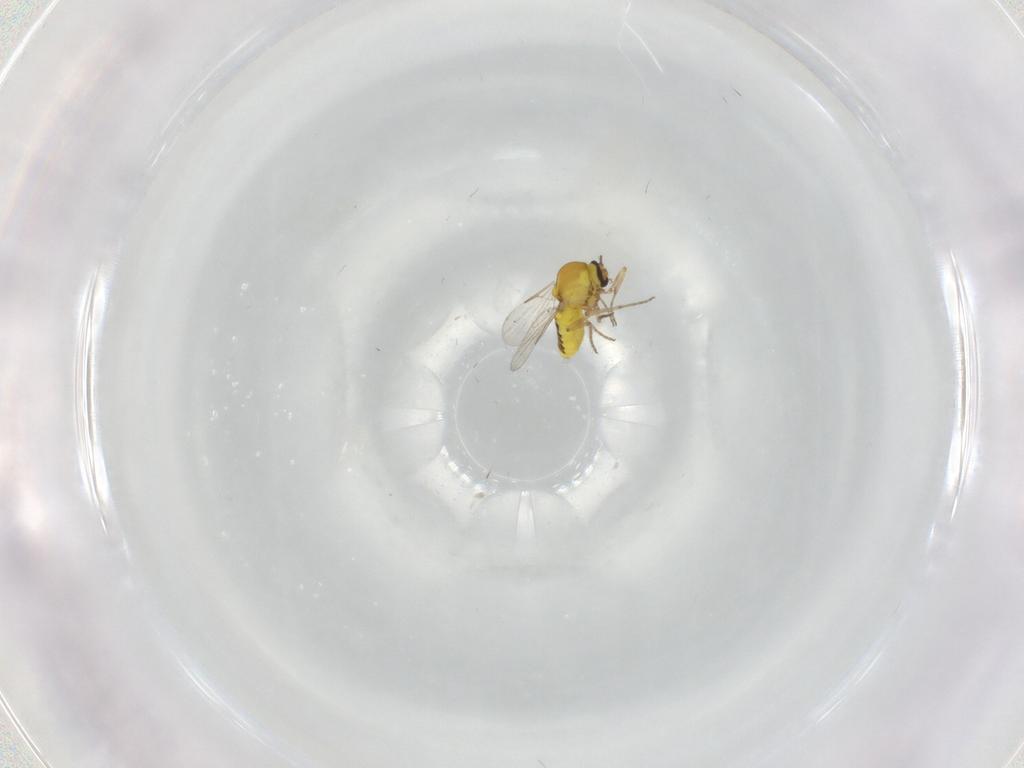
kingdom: Animalia
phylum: Arthropoda
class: Insecta
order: Diptera
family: Ceratopogonidae
